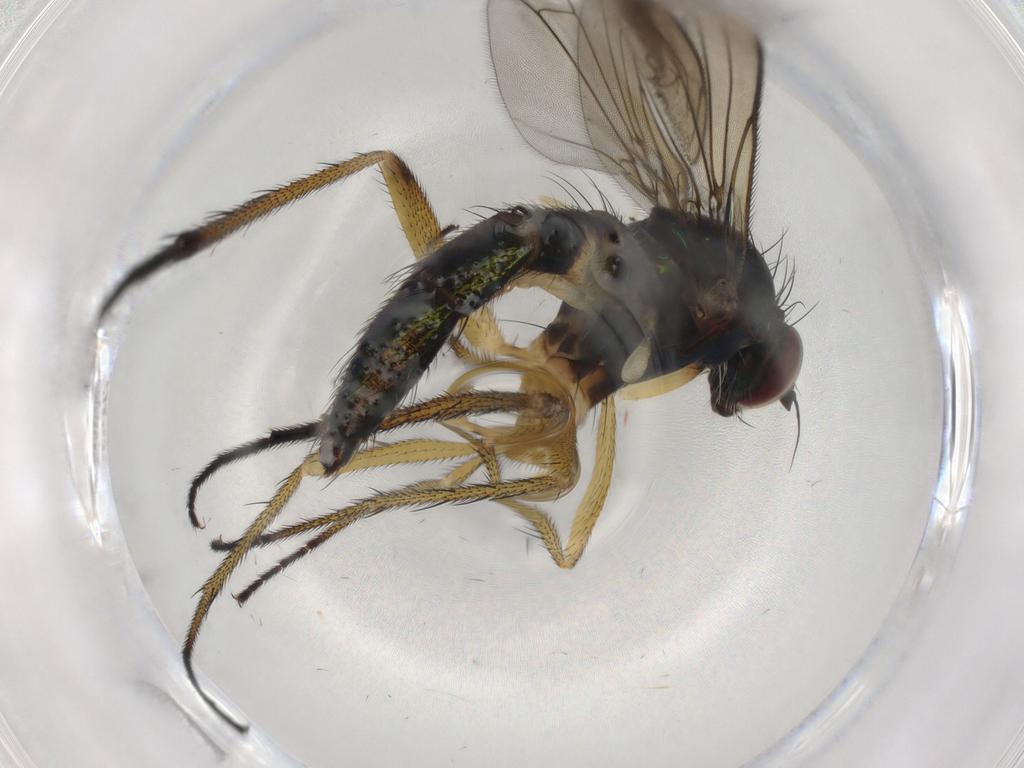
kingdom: Animalia
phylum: Arthropoda
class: Insecta
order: Diptera
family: Dolichopodidae
